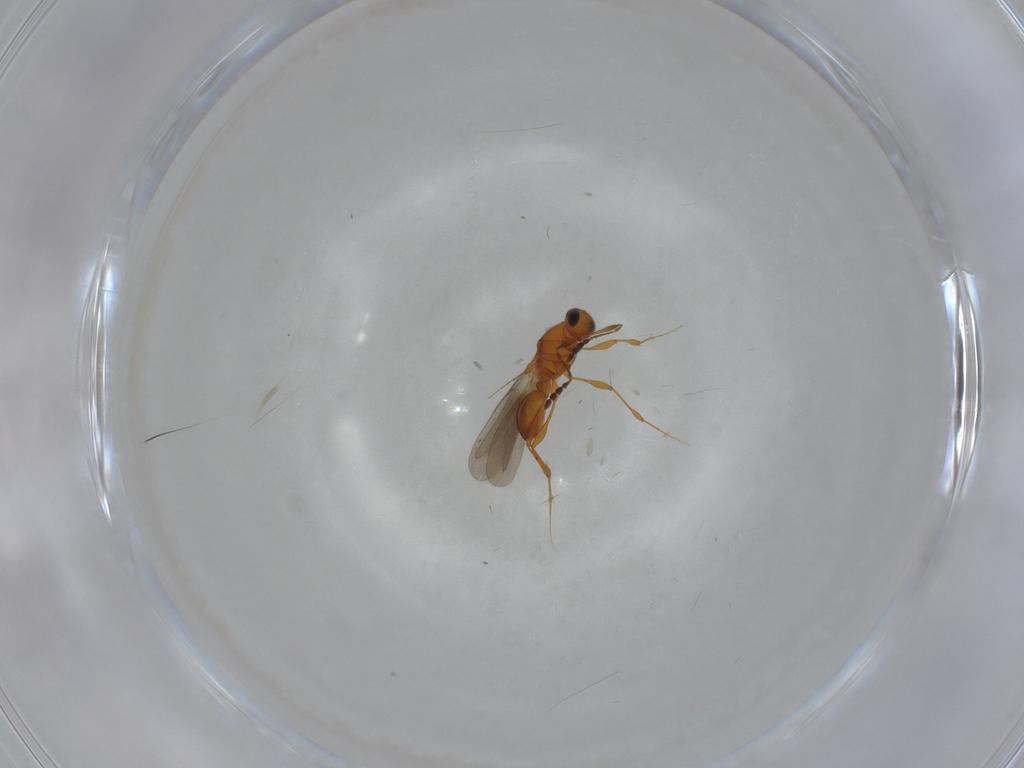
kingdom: Animalia
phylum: Arthropoda
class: Insecta
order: Hymenoptera
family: Platygastridae
